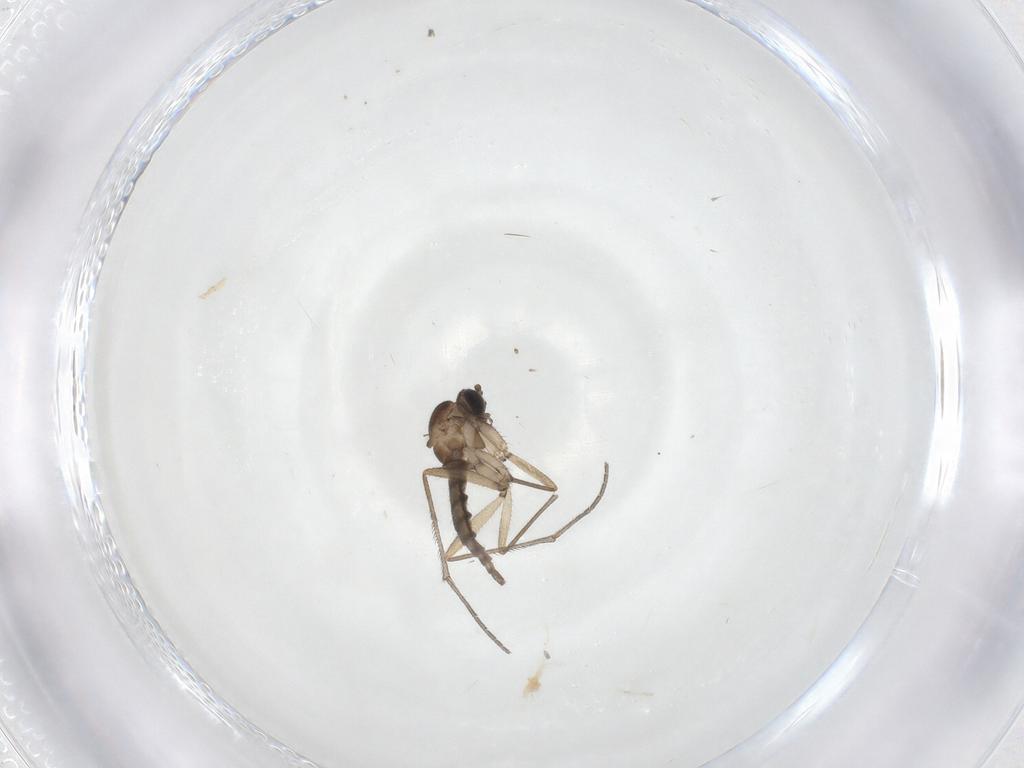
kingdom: Animalia
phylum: Arthropoda
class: Insecta
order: Diptera
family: Sciaridae
